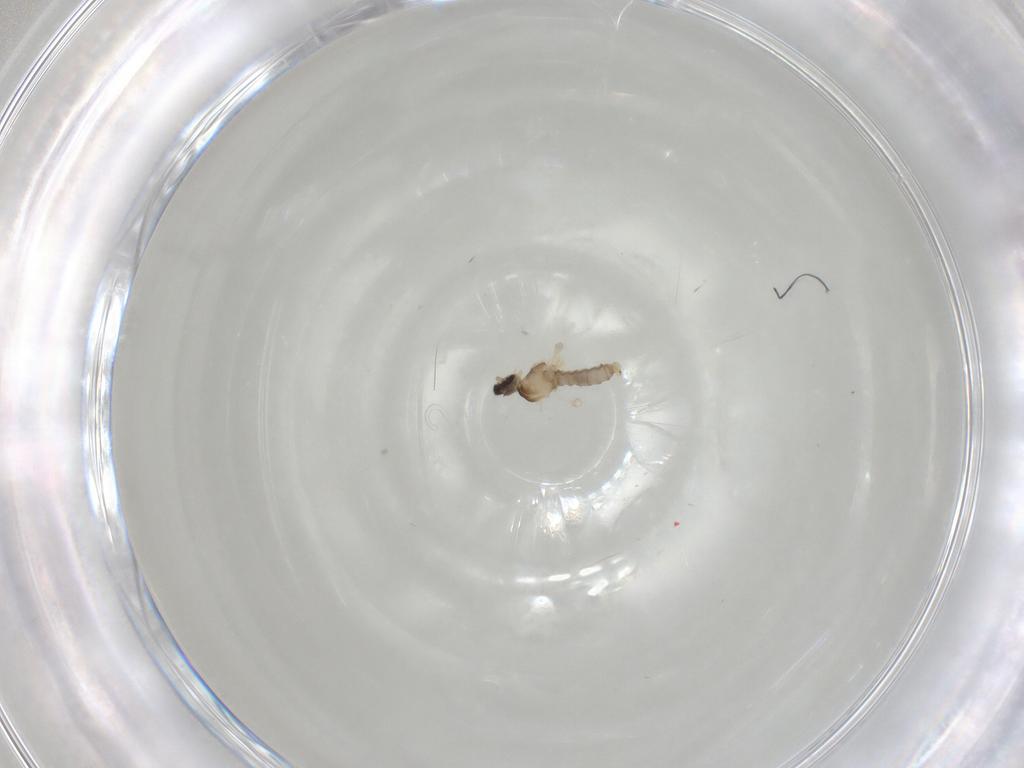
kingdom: Animalia
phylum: Arthropoda
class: Insecta
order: Diptera
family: Cecidomyiidae
